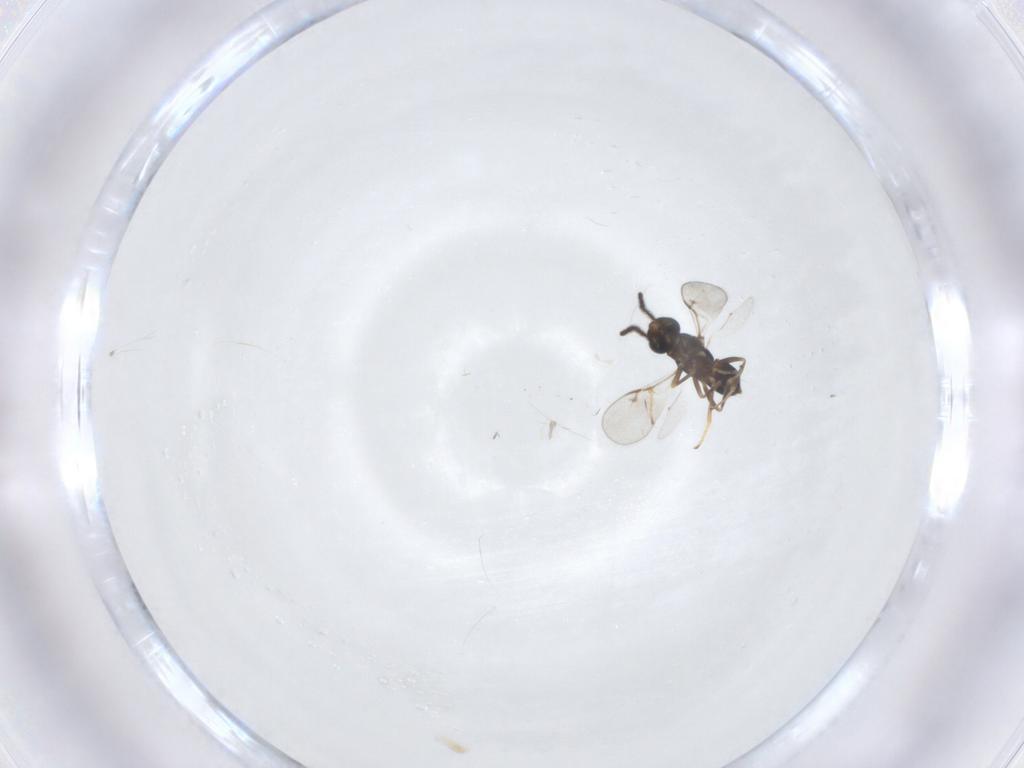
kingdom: Animalia
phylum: Arthropoda
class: Insecta
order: Hymenoptera
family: Encyrtidae
